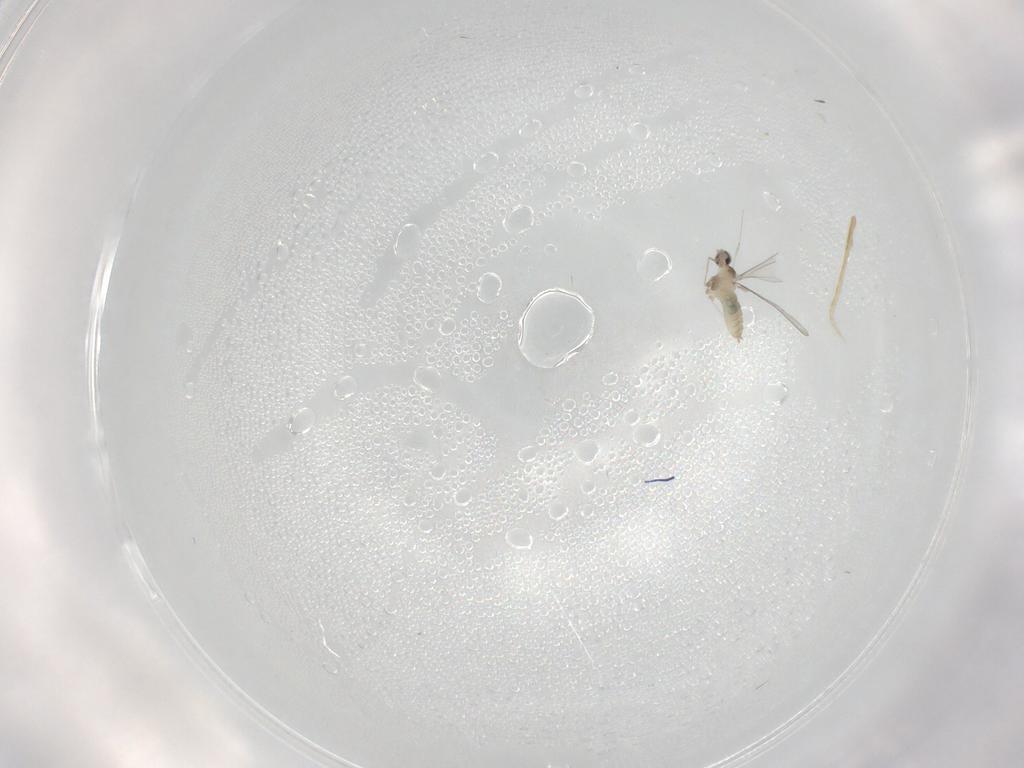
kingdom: Animalia
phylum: Arthropoda
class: Insecta
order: Diptera
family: Cecidomyiidae
